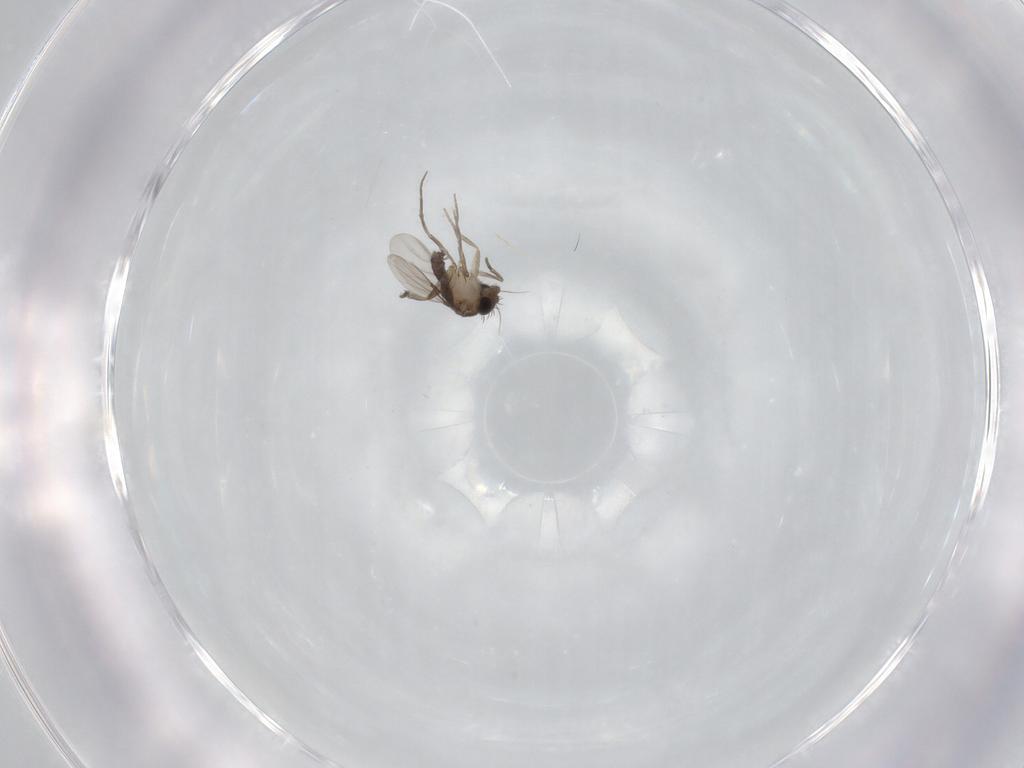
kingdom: Animalia
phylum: Arthropoda
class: Insecta
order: Diptera
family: Phoridae
